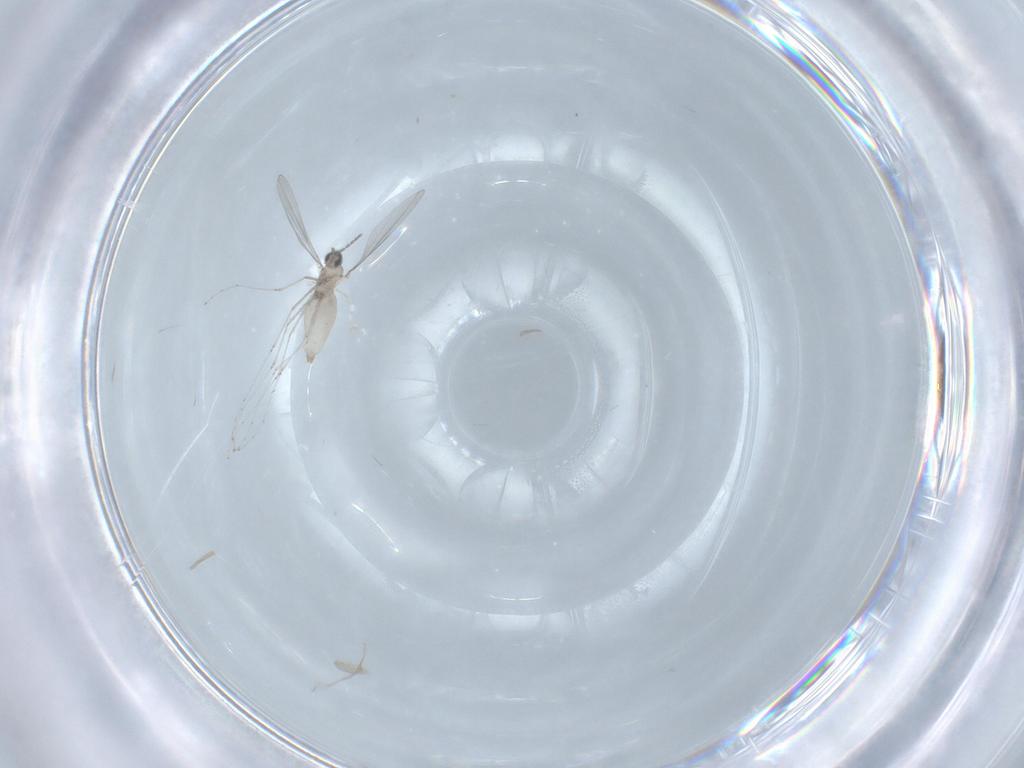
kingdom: Animalia
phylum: Arthropoda
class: Insecta
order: Diptera
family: Cecidomyiidae
